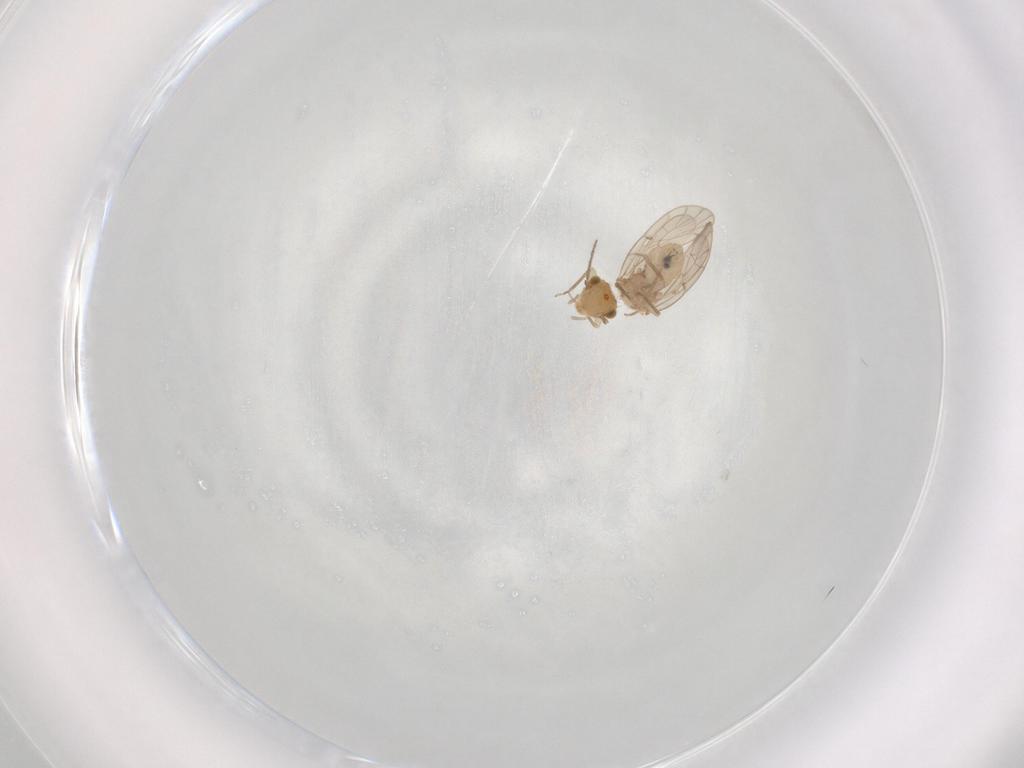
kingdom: Animalia
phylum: Arthropoda
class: Insecta
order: Psocodea
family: Ectopsocidae
